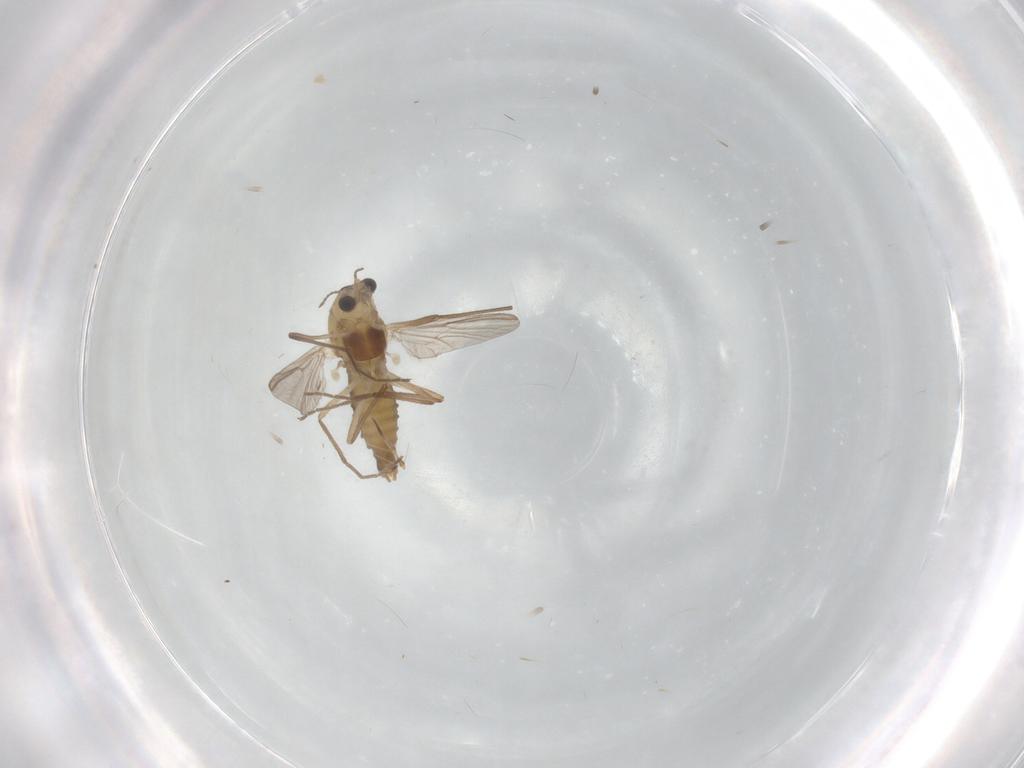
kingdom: Animalia
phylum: Arthropoda
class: Insecta
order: Diptera
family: Chironomidae
